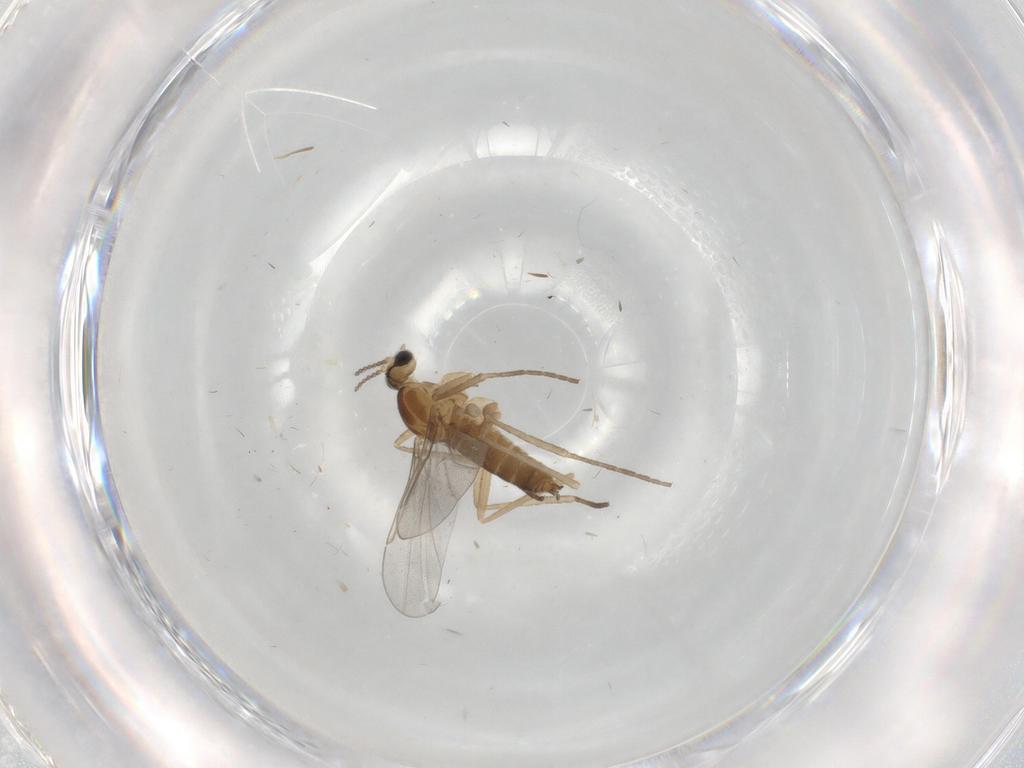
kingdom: Animalia
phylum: Arthropoda
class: Insecta
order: Diptera
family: Cecidomyiidae
